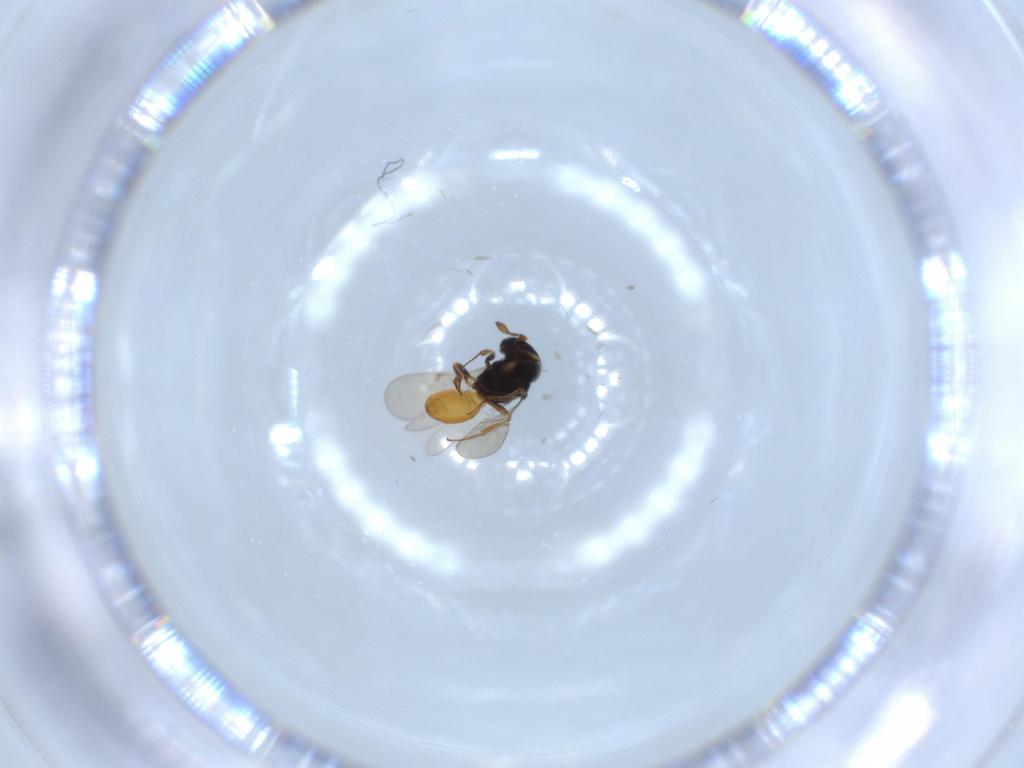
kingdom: Animalia
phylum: Arthropoda
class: Insecta
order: Hymenoptera
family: Scelionidae
